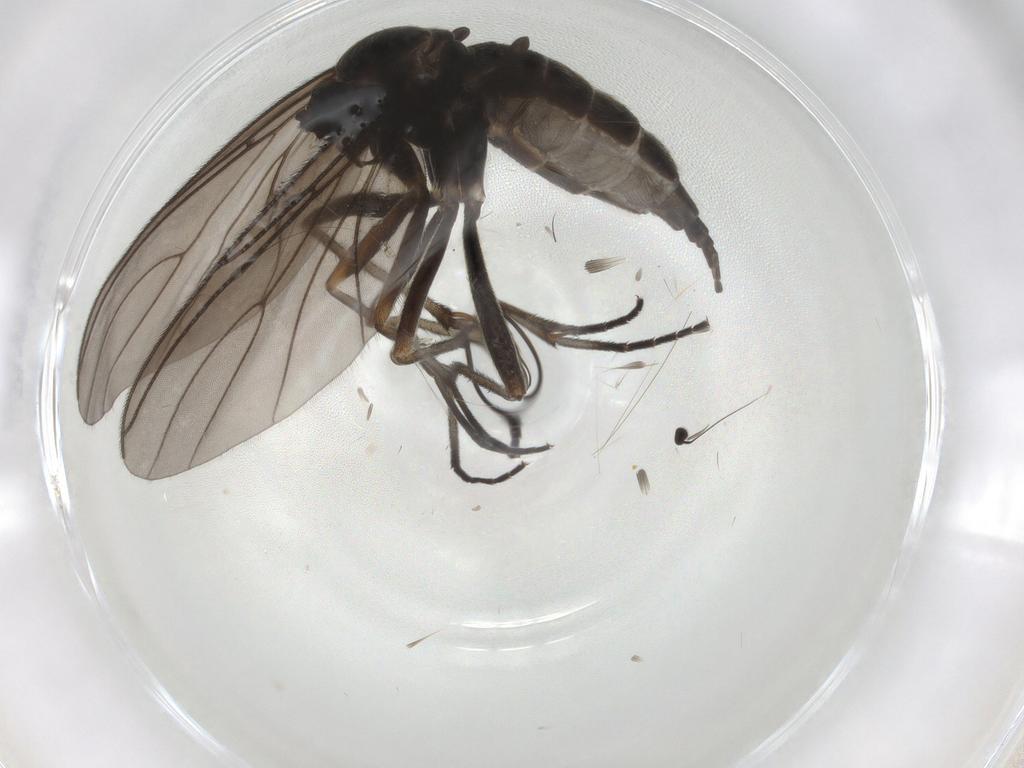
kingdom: Animalia
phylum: Arthropoda
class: Insecta
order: Diptera
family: Sciaridae
